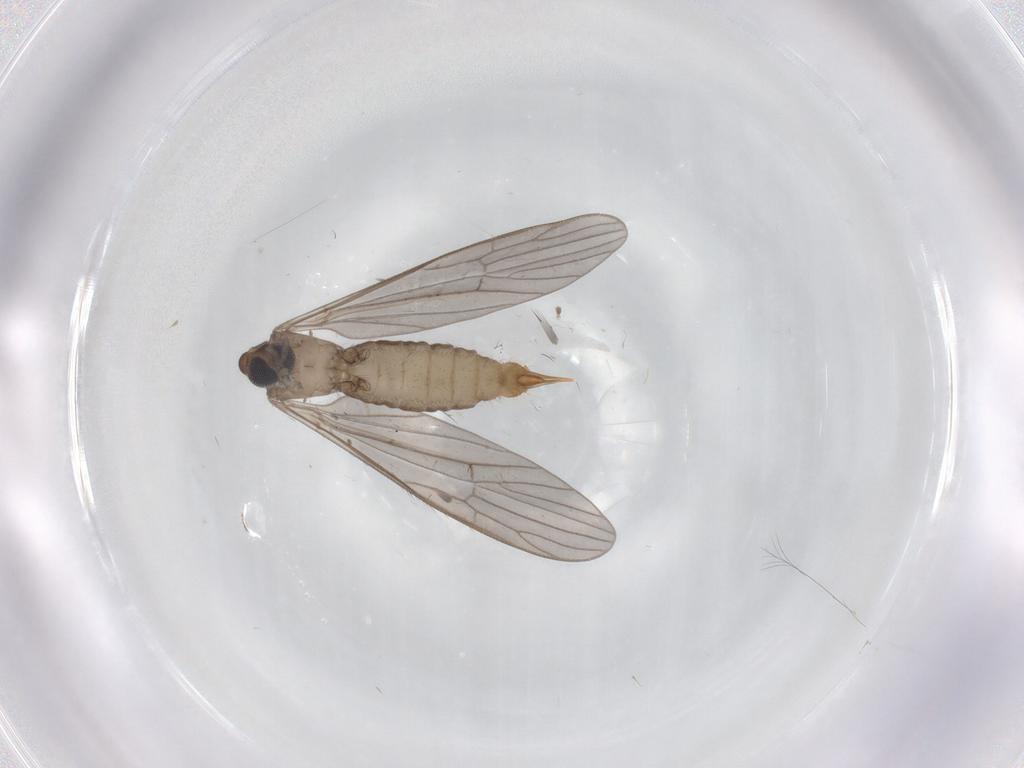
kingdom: Animalia
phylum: Arthropoda
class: Insecta
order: Diptera
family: Limoniidae
